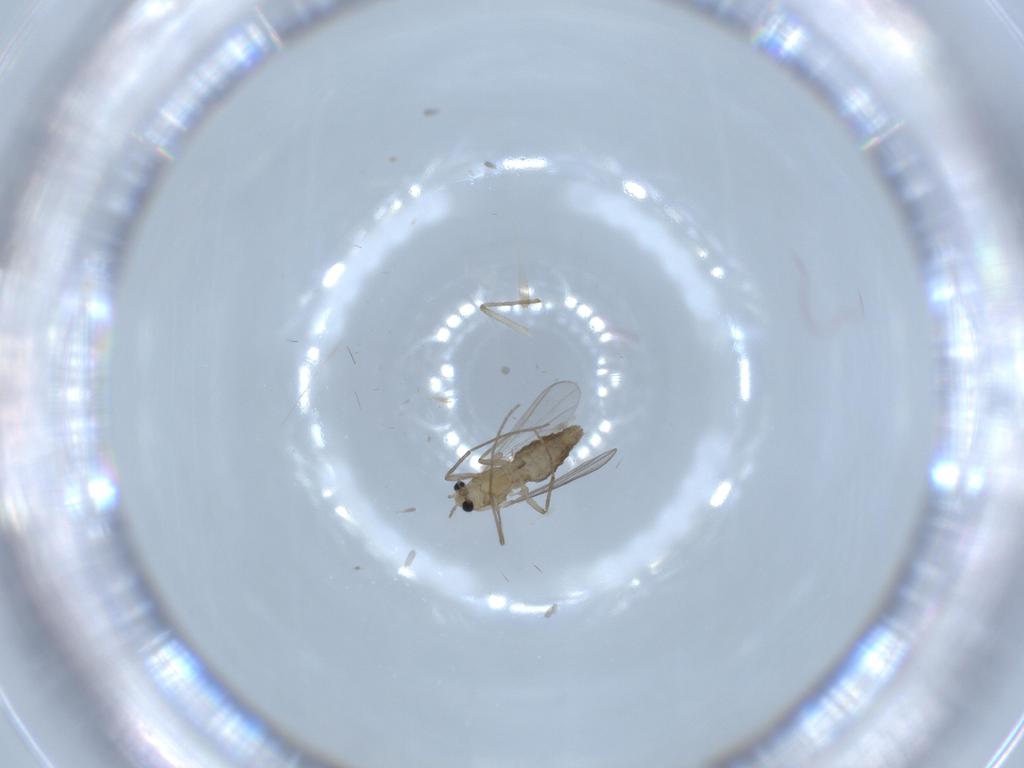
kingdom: Animalia
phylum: Arthropoda
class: Insecta
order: Diptera
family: Chironomidae
